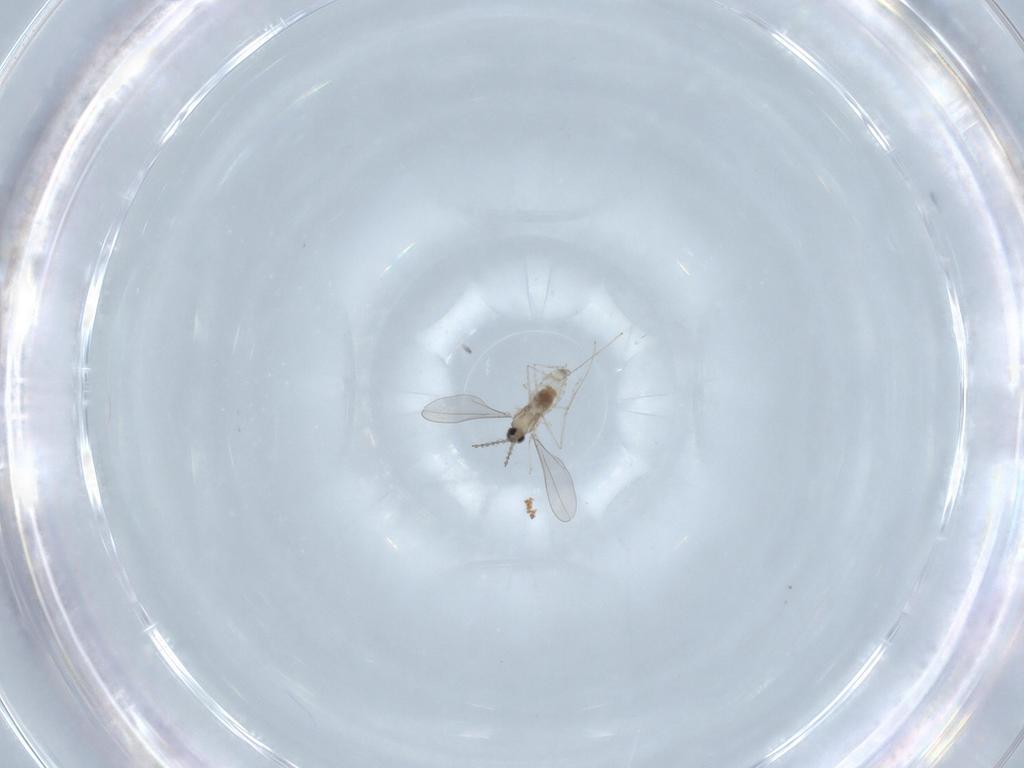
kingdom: Animalia
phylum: Arthropoda
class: Insecta
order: Diptera
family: Cecidomyiidae
